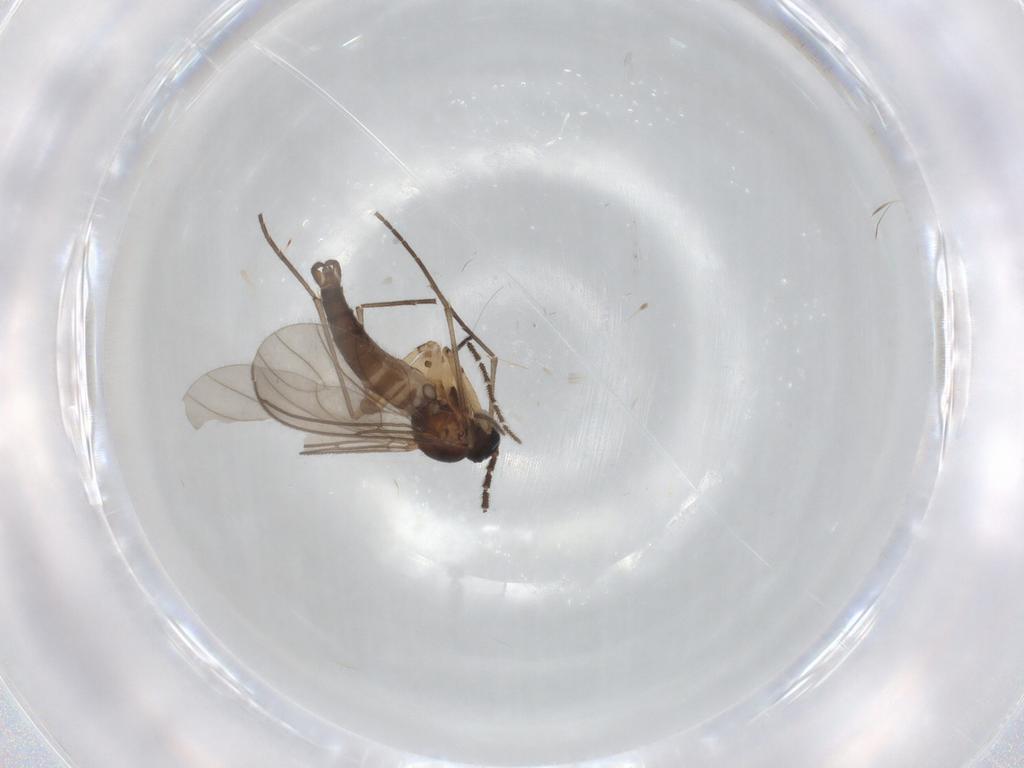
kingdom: Animalia
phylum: Arthropoda
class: Insecta
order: Diptera
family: Sciaridae
